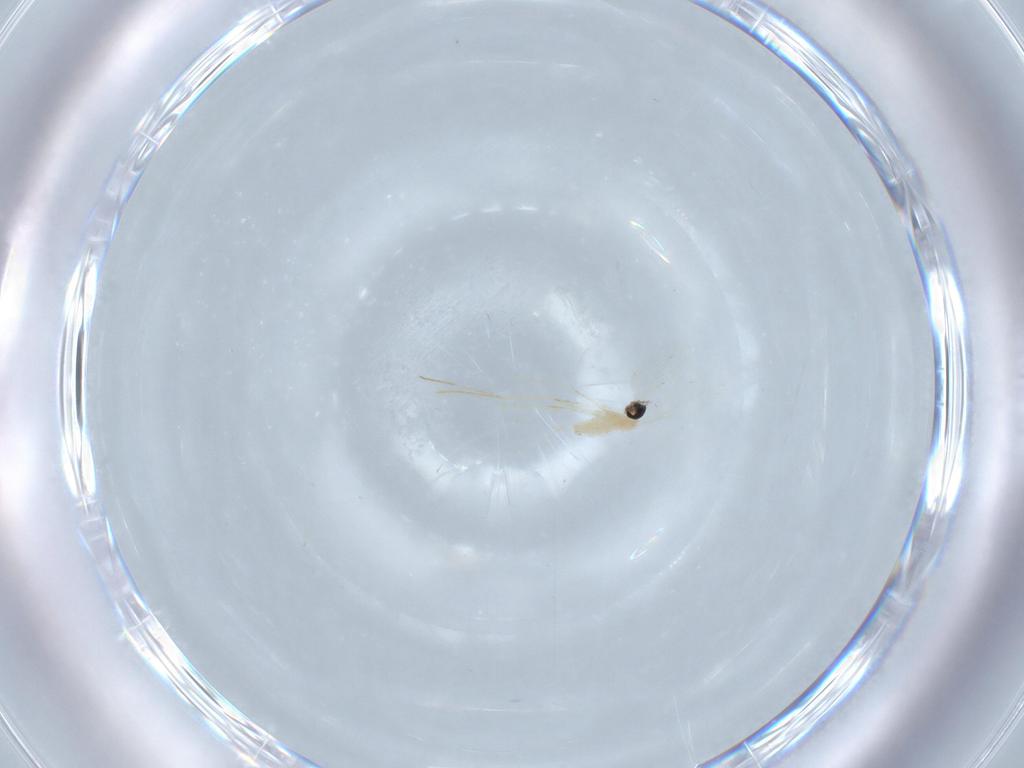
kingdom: Animalia
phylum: Arthropoda
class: Insecta
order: Diptera
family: Cecidomyiidae
